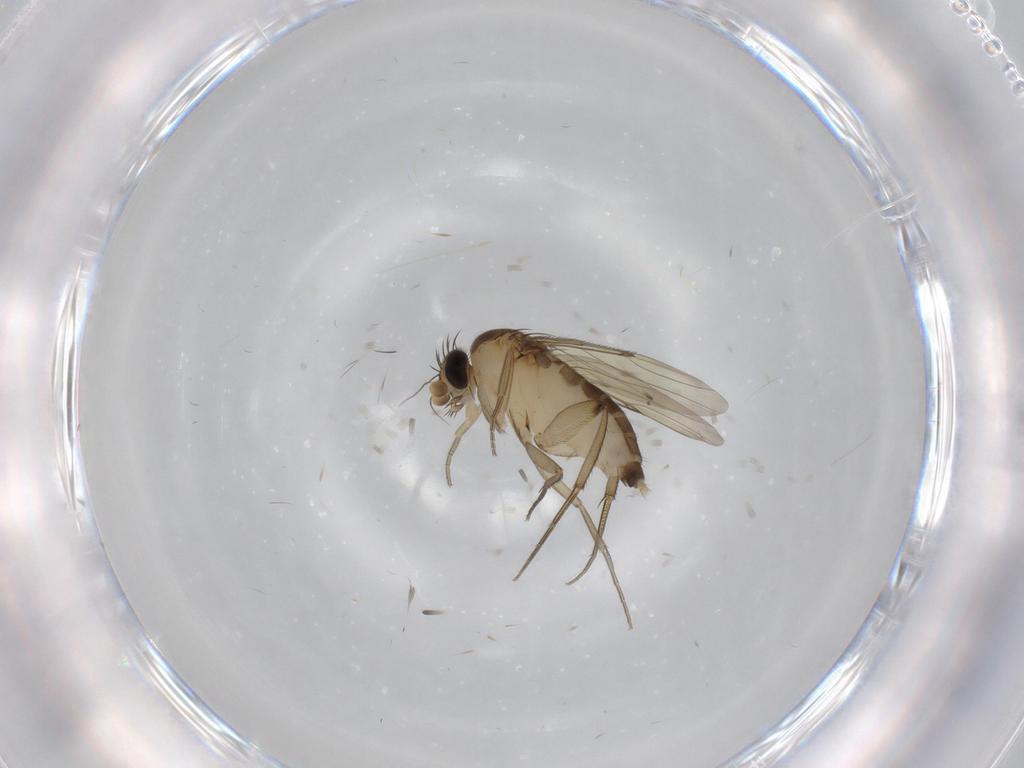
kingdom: Animalia
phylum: Arthropoda
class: Insecta
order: Diptera
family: Phoridae
